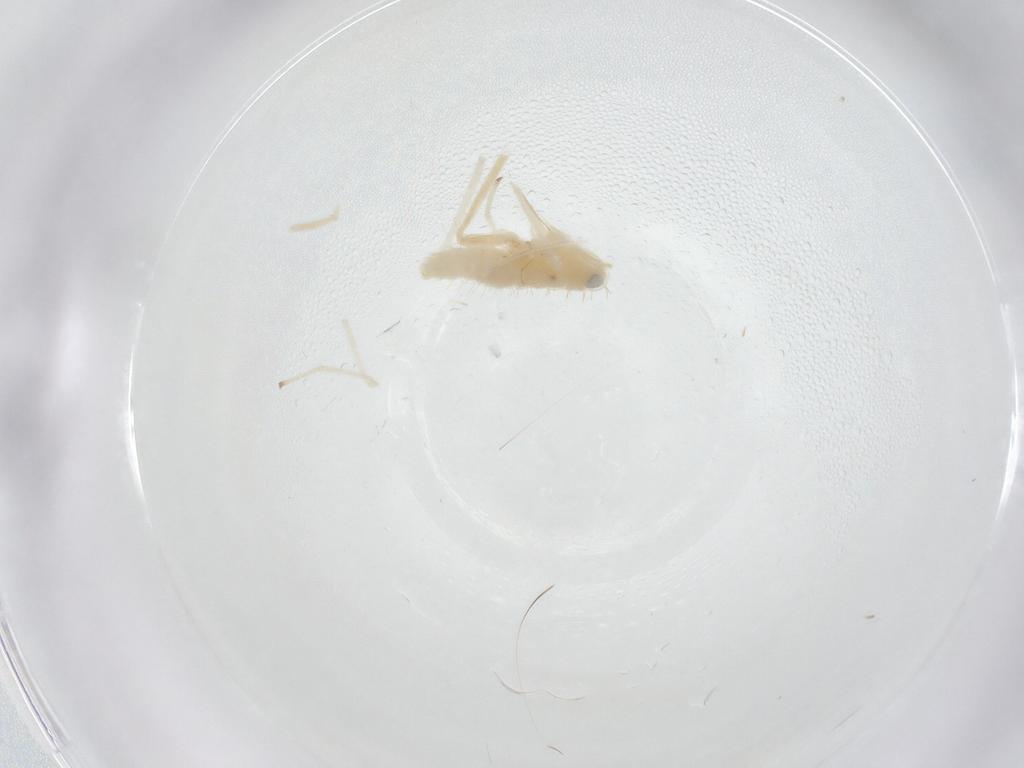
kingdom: Animalia
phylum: Arthropoda
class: Insecta
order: Hemiptera
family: Cicadellidae
